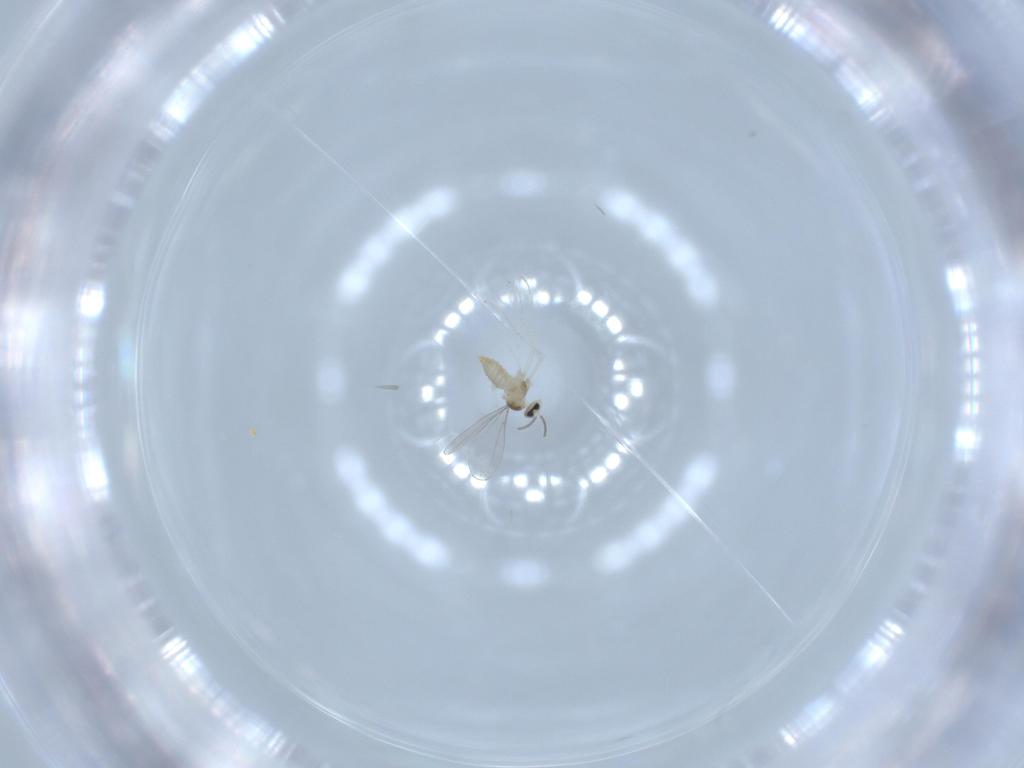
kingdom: Animalia
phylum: Arthropoda
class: Insecta
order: Diptera
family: Cecidomyiidae
